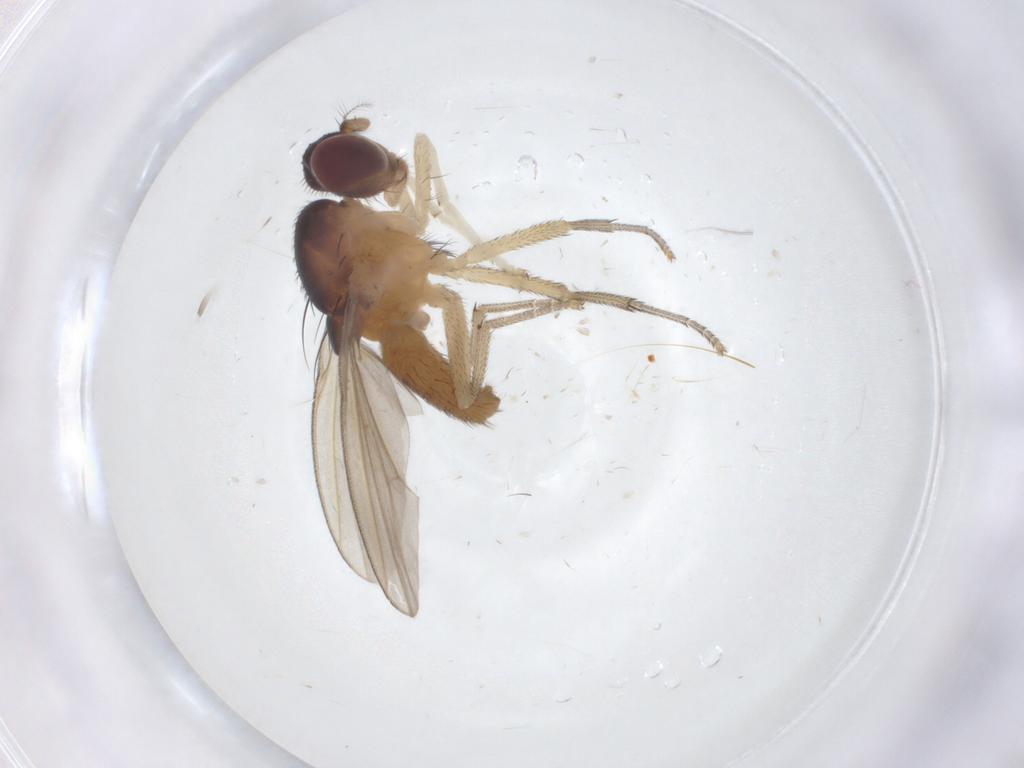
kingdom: Animalia
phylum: Arthropoda
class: Insecta
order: Diptera
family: Lauxaniidae
